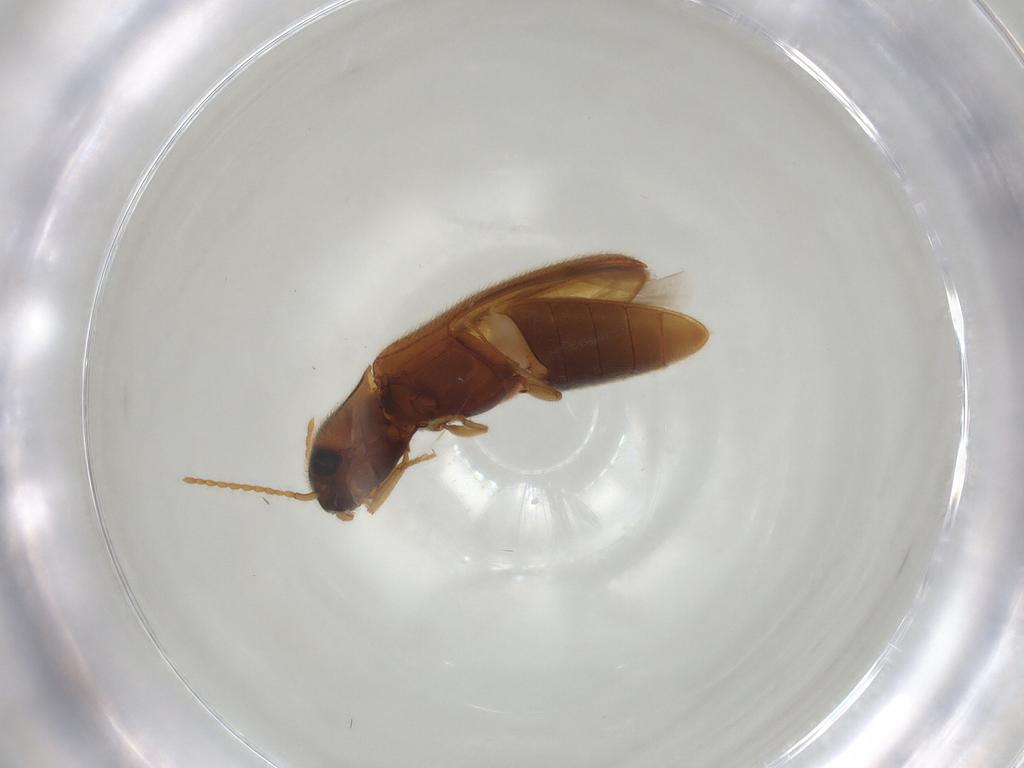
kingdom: Animalia
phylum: Arthropoda
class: Insecta
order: Coleoptera
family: Elateridae
